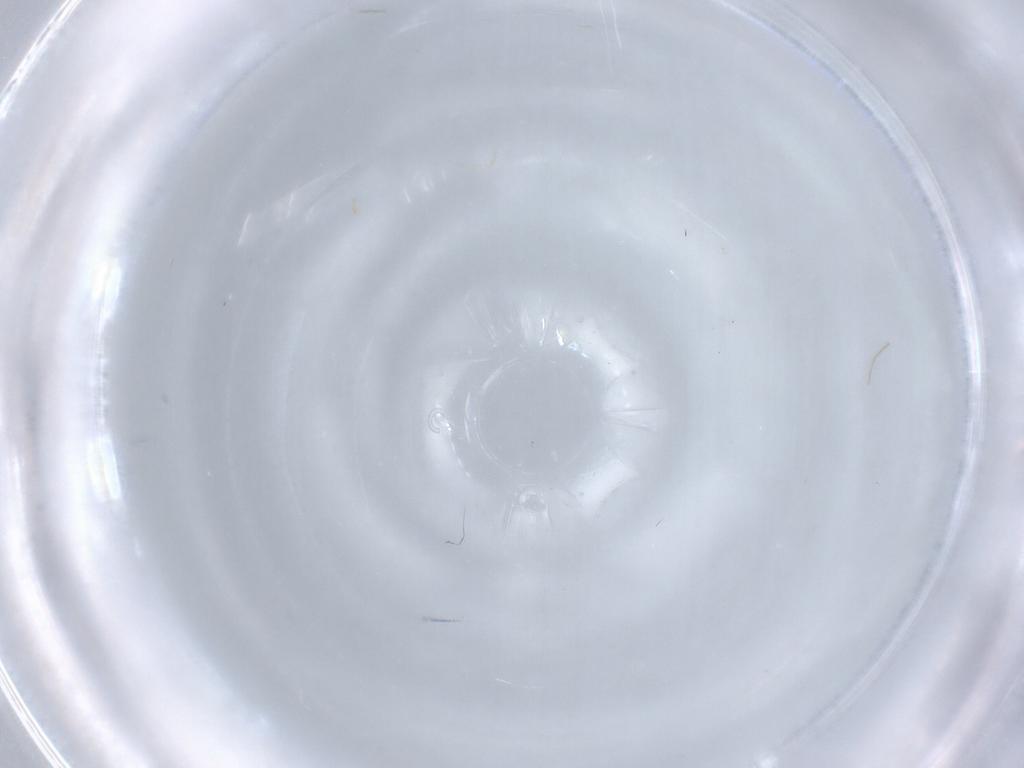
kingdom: Animalia
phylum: Arthropoda
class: Insecta
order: Diptera
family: Cecidomyiidae
